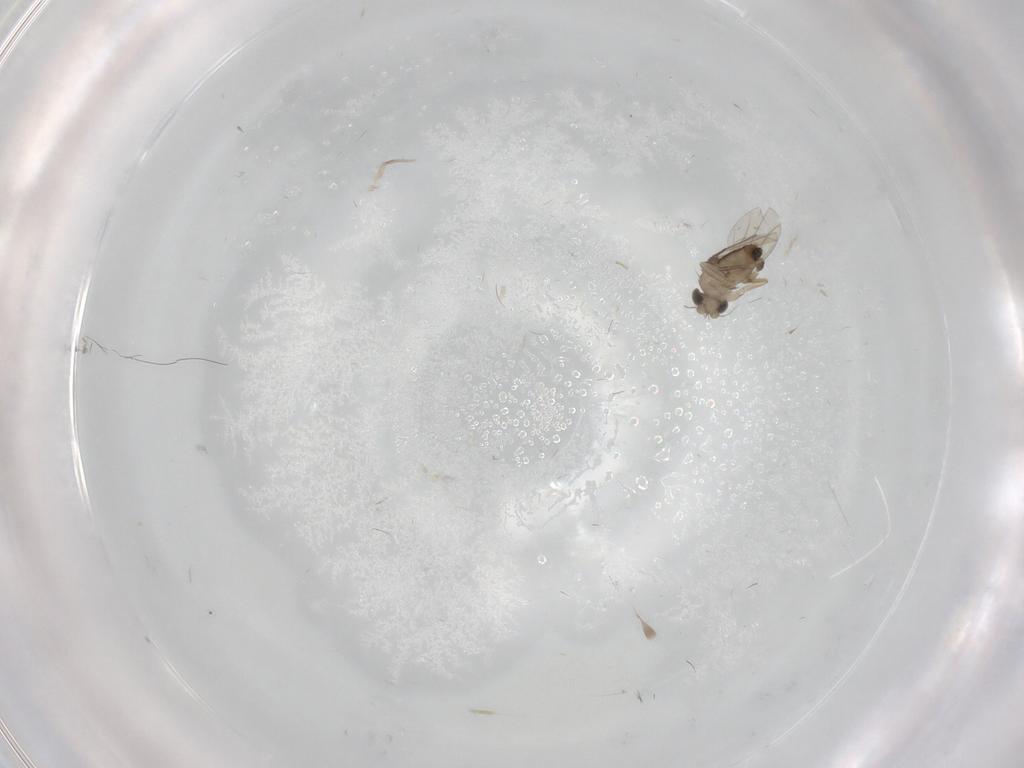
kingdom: Animalia
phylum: Arthropoda
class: Insecta
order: Diptera
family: Phoridae
